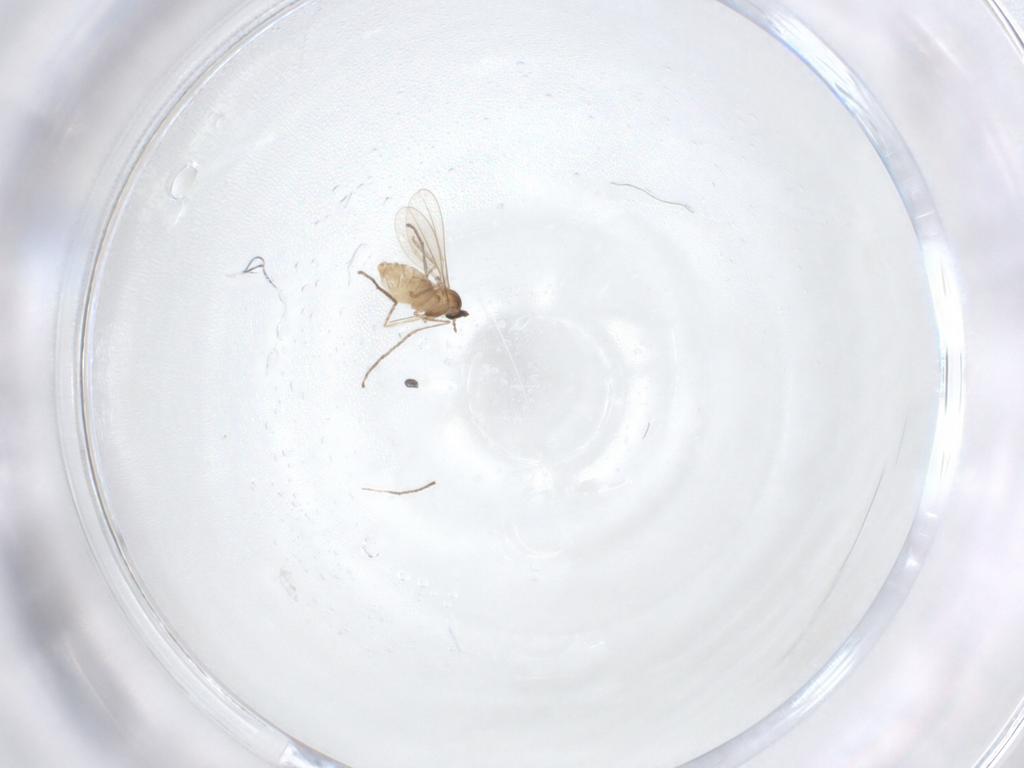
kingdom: Animalia
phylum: Arthropoda
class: Insecta
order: Diptera
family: Cecidomyiidae
